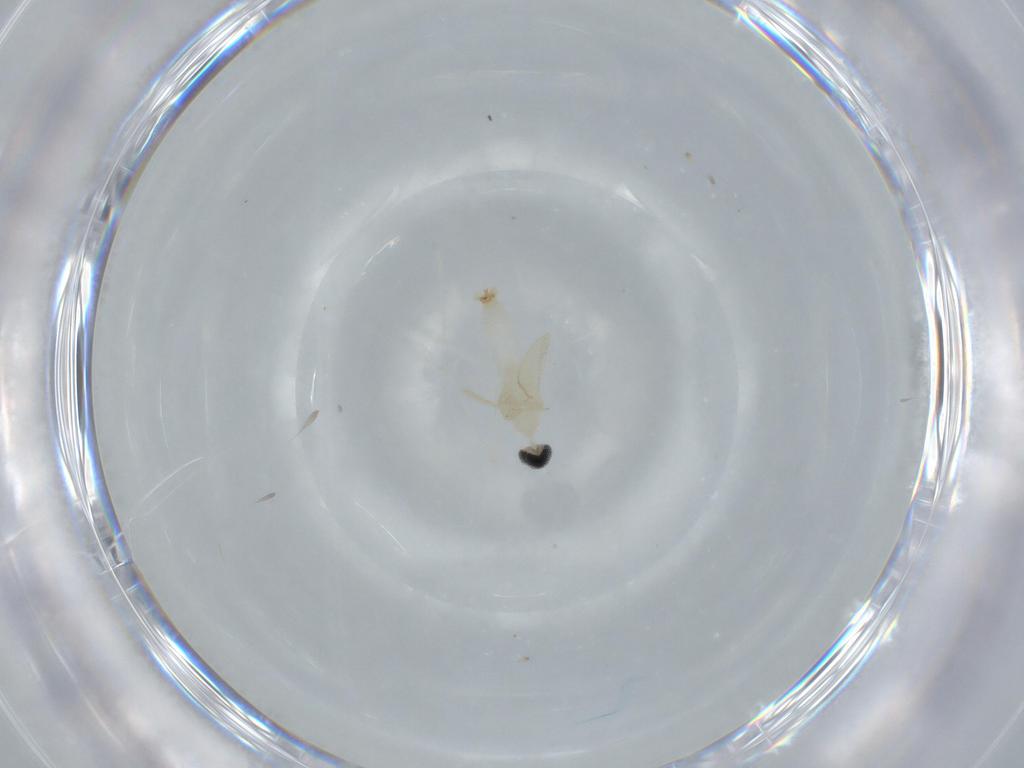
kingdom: Animalia
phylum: Arthropoda
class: Insecta
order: Diptera
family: Cecidomyiidae
